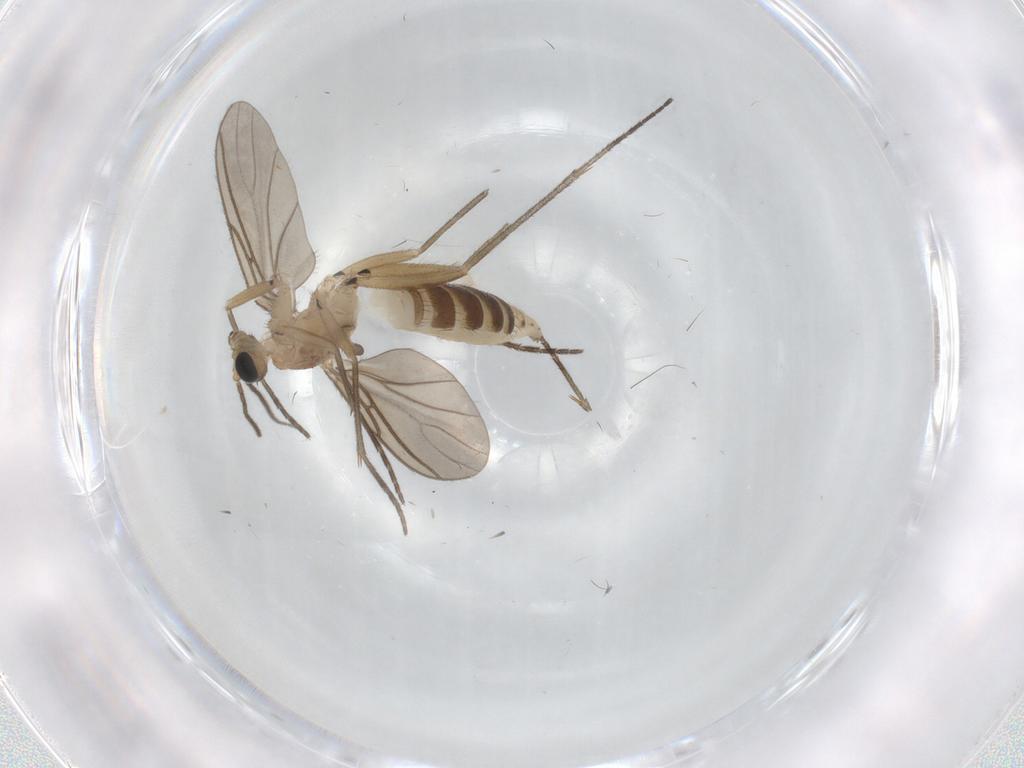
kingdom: Animalia
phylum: Arthropoda
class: Insecta
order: Diptera
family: Sciaridae
